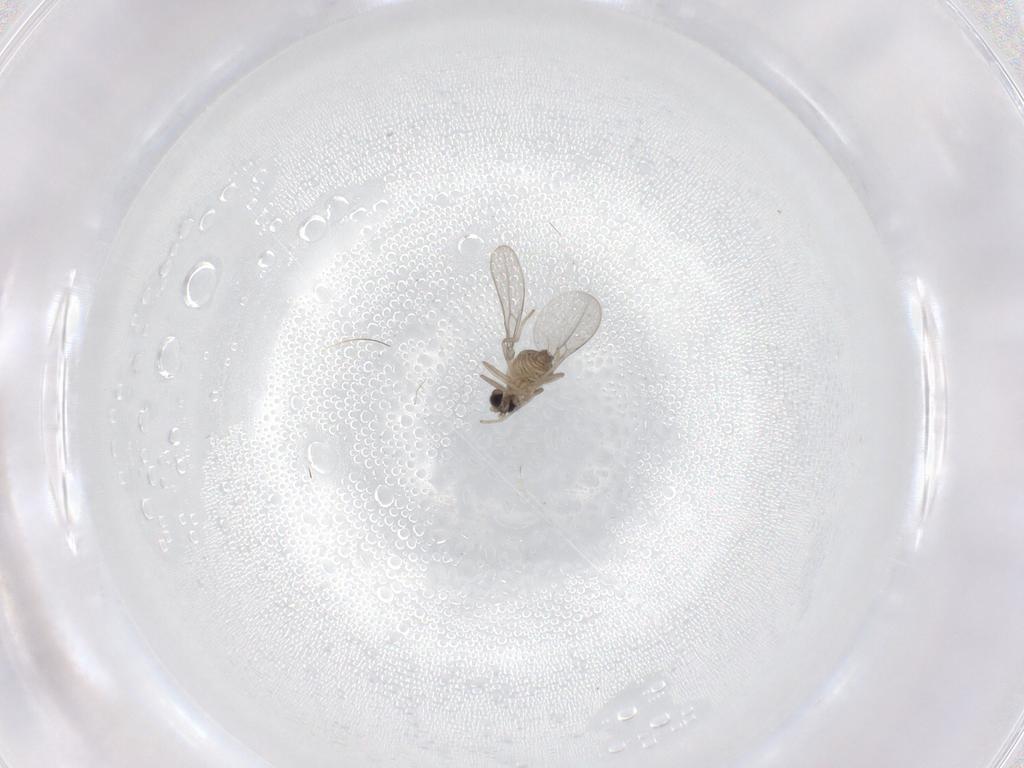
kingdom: Animalia
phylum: Arthropoda
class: Insecta
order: Diptera
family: Cecidomyiidae
